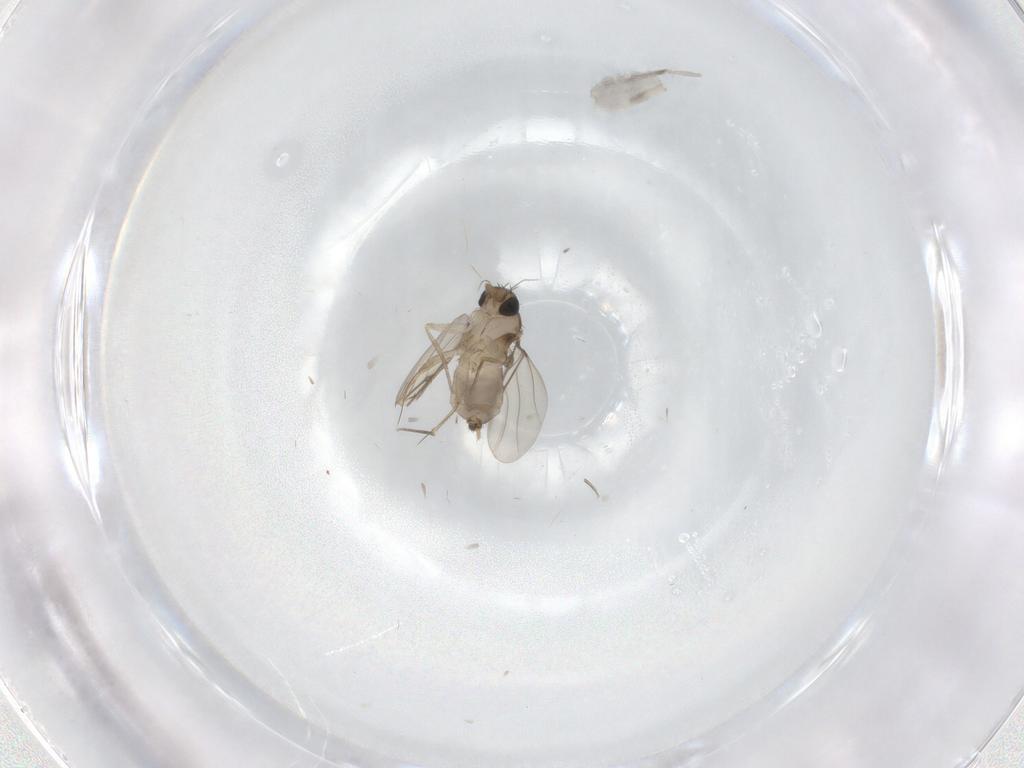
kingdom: Animalia
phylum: Arthropoda
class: Insecta
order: Diptera
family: Phoridae
